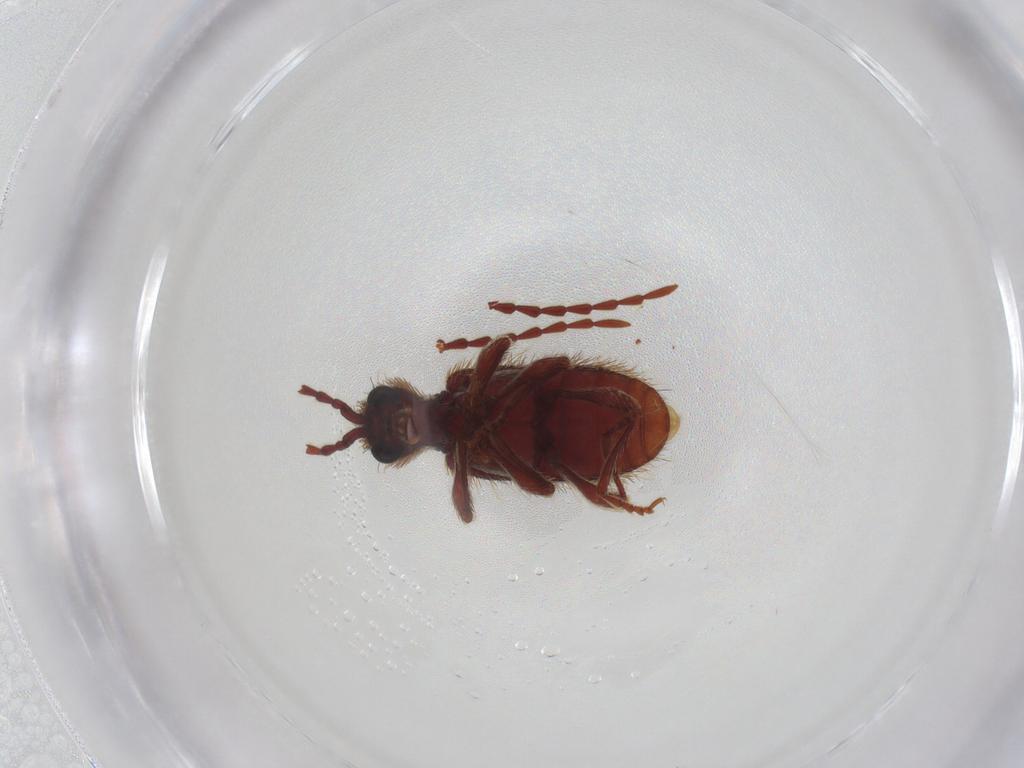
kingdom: Animalia
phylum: Arthropoda
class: Insecta
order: Coleoptera
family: Ptinidae
